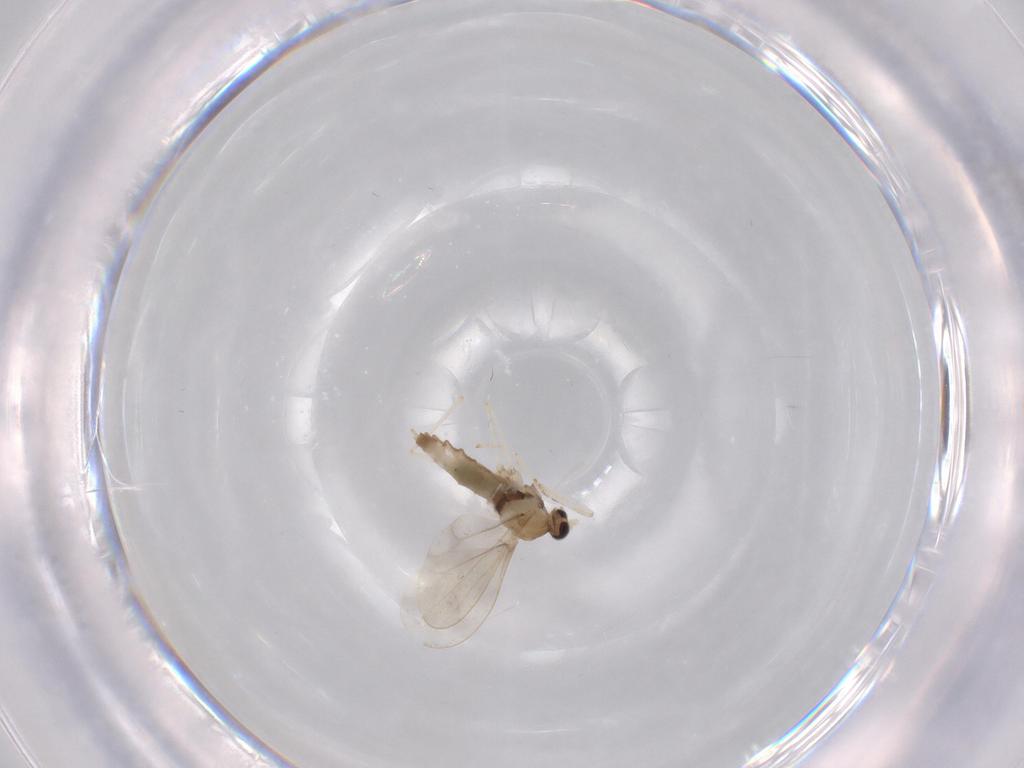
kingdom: Animalia
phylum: Arthropoda
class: Insecta
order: Diptera
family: Cecidomyiidae
